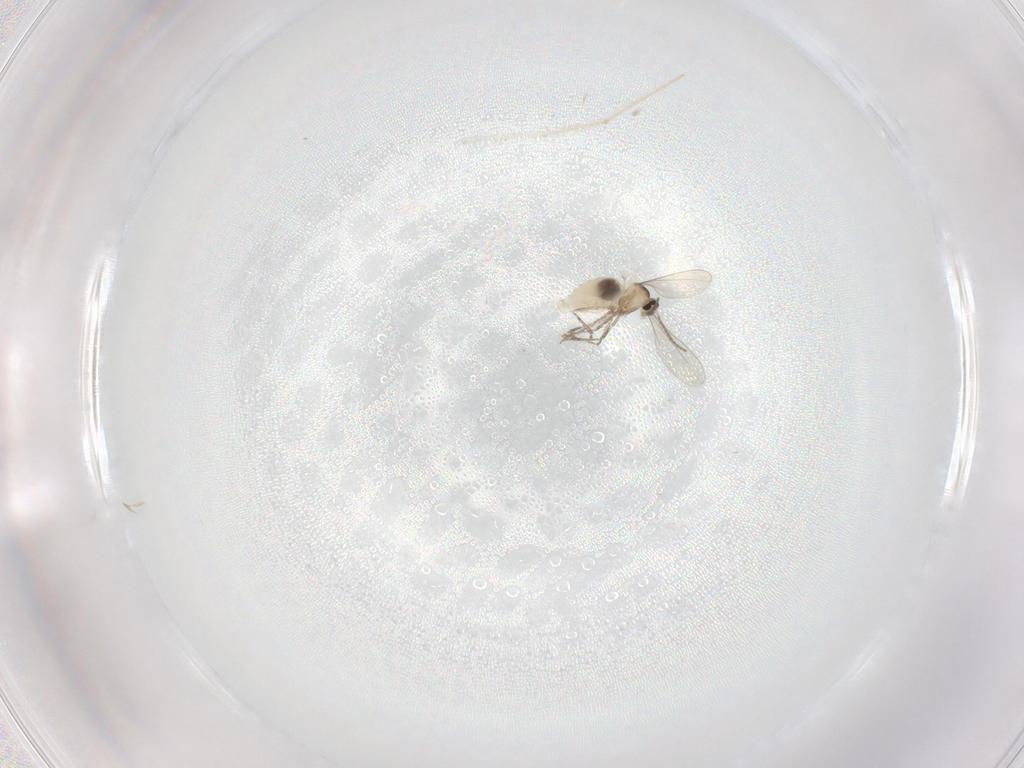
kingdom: Animalia
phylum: Arthropoda
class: Insecta
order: Diptera
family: Cecidomyiidae
